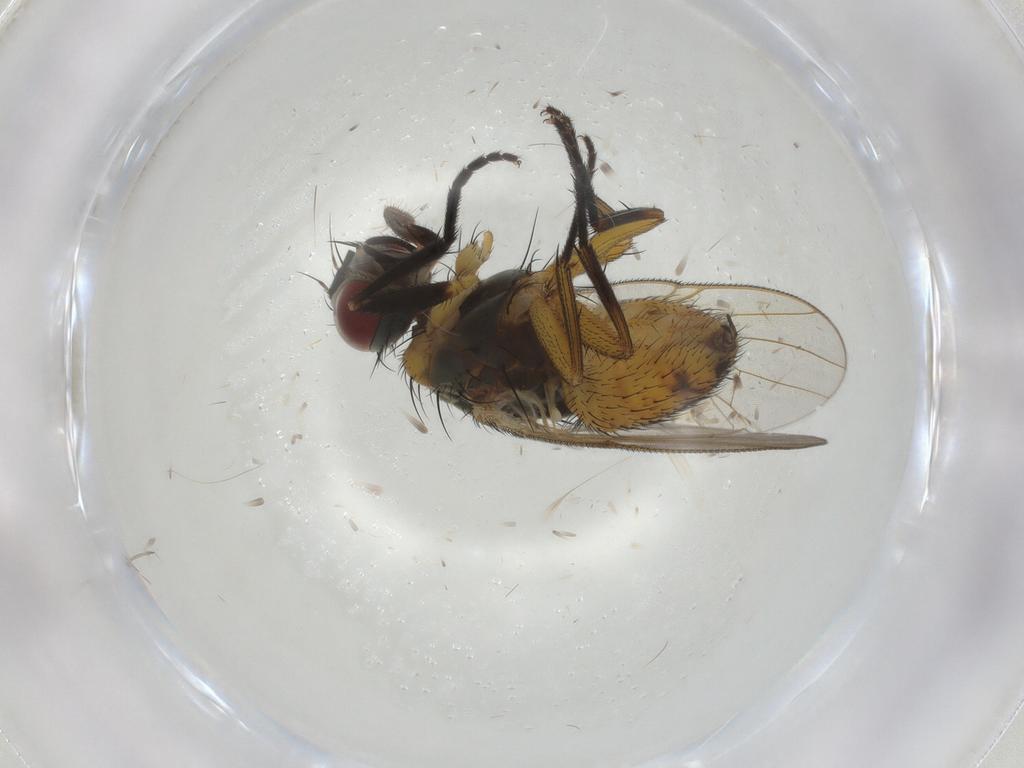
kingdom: Animalia
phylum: Arthropoda
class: Insecta
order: Diptera
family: Muscidae
